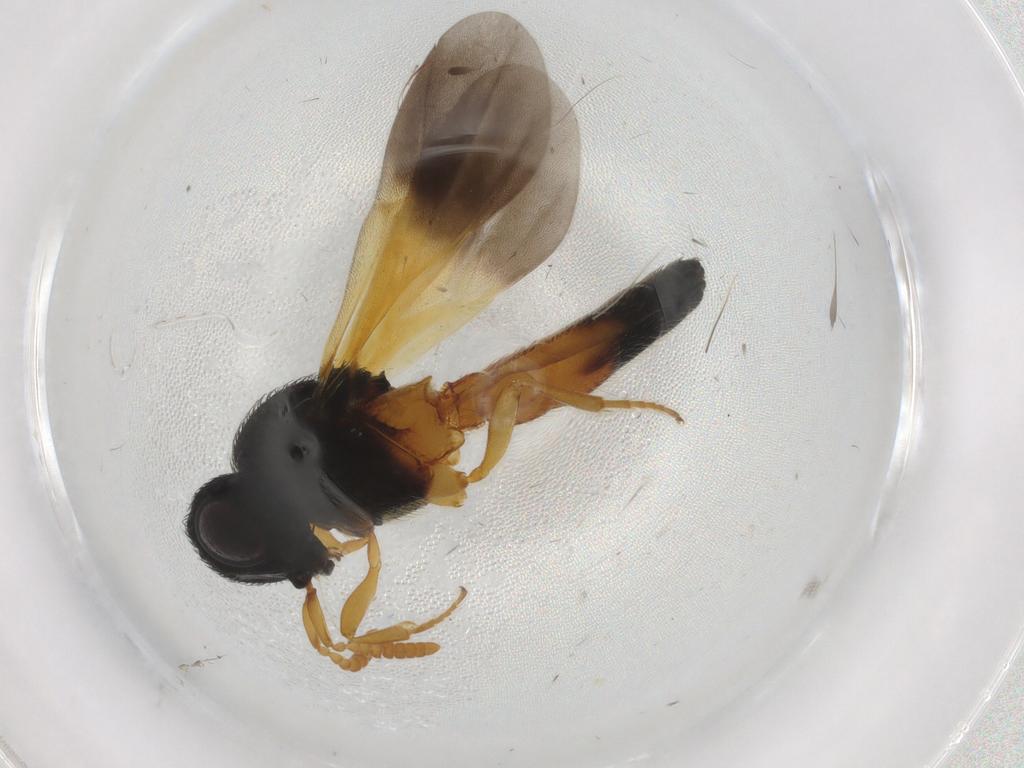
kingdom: Animalia
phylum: Arthropoda
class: Insecta
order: Hymenoptera
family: Scelionidae
